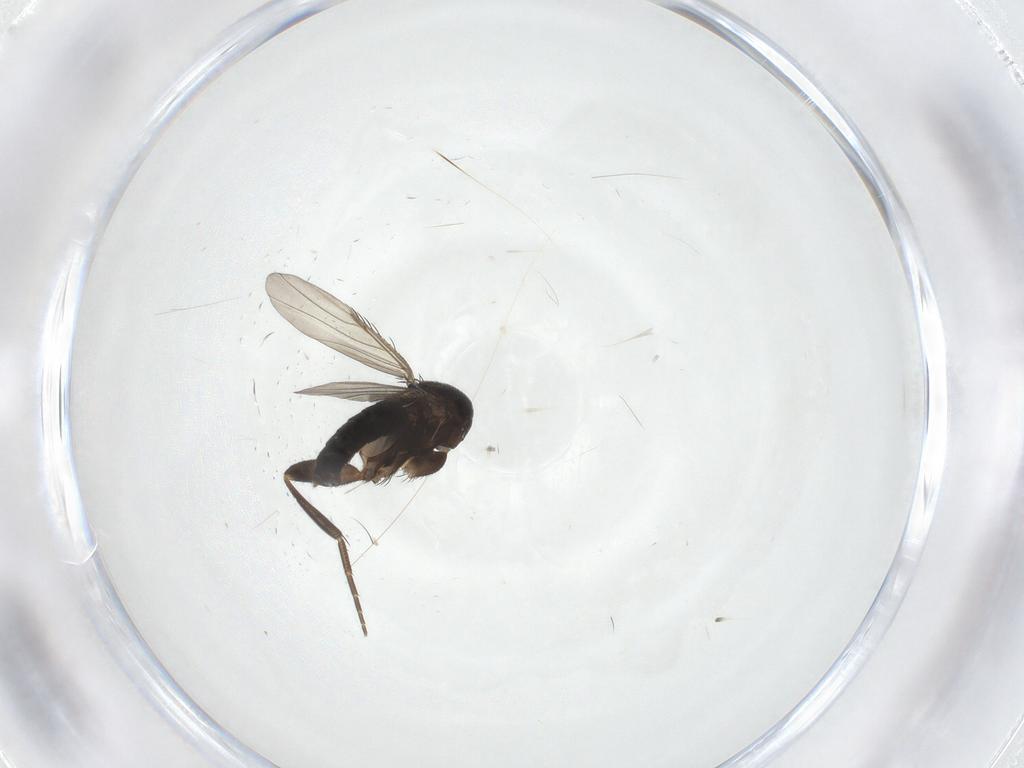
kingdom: Animalia
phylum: Arthropoda
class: Insecta
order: Diptera
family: Phoridae
